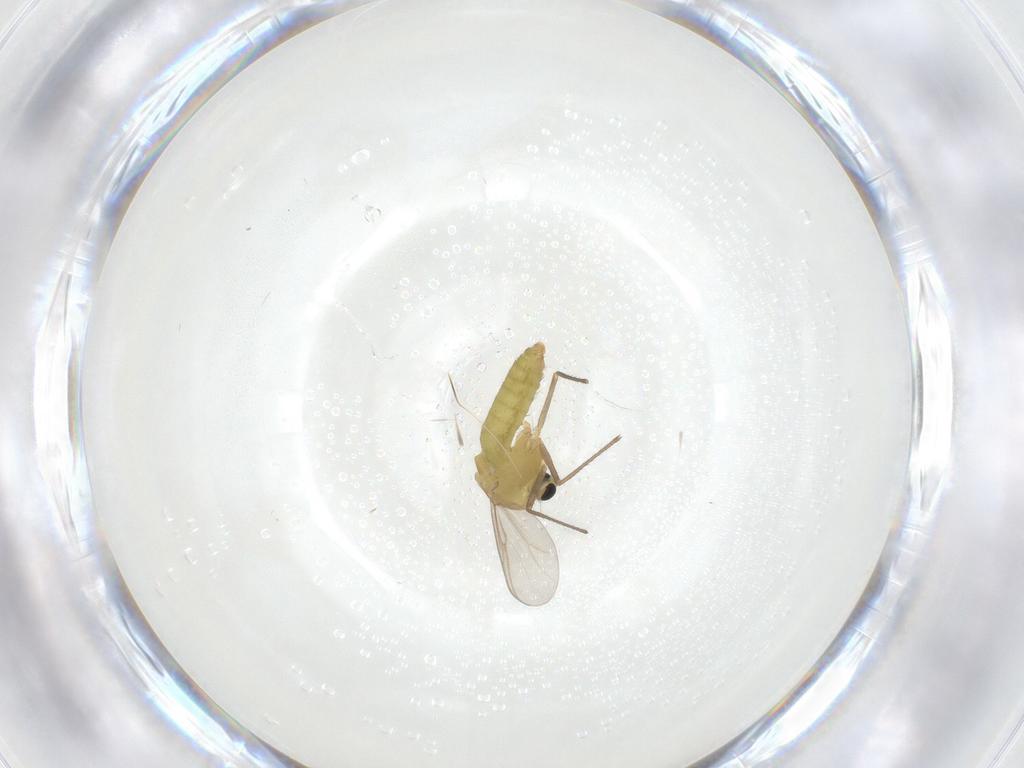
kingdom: Animalia
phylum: Arthropoda
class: Insecta
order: Diptera
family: Chironomidae
